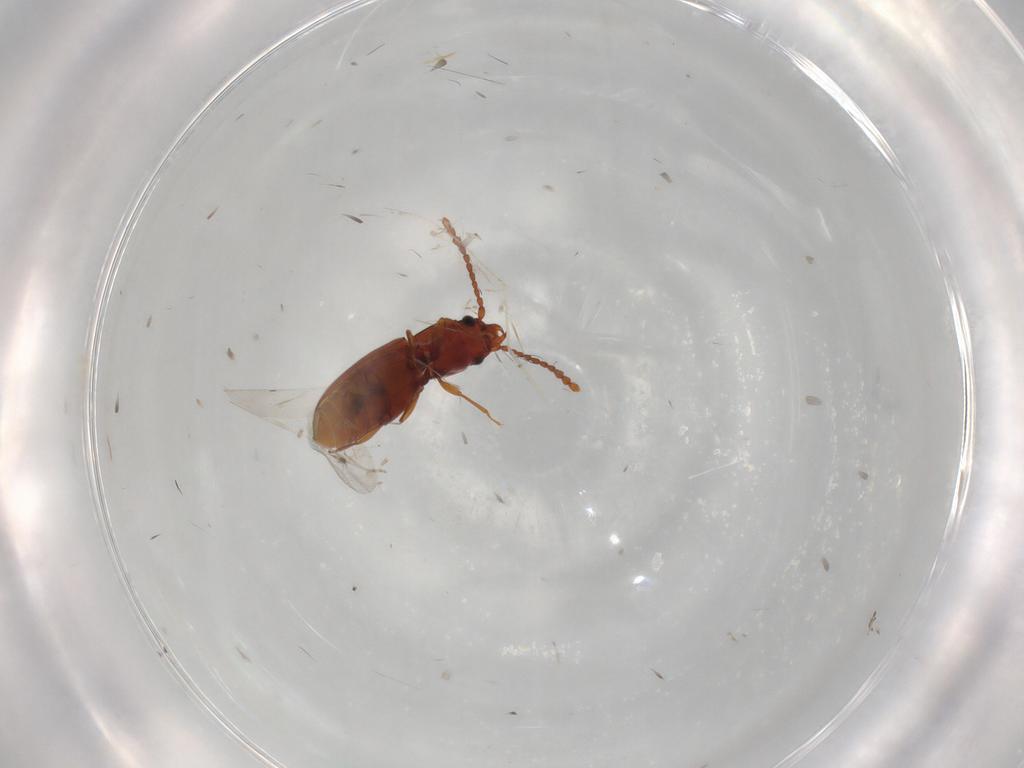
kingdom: Animalia
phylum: Arthropoda
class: Insecta
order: Coleoptera
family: Laemophloeidae
